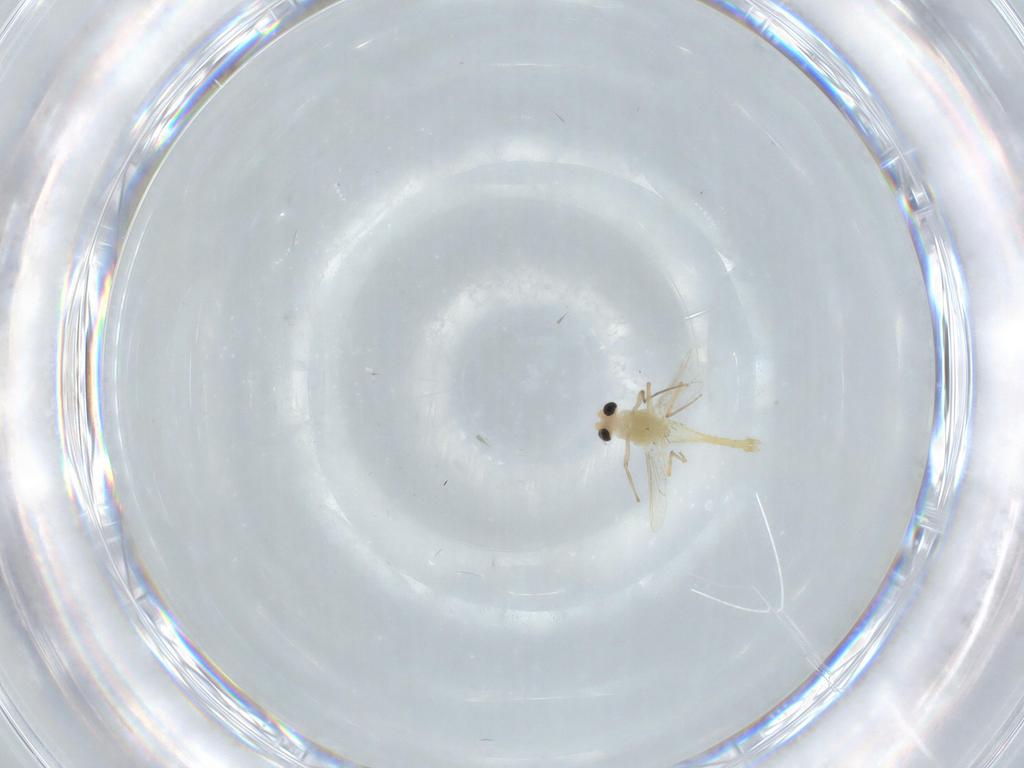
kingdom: Animalia
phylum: Arthropoda
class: Insecta
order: Diptera
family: Chironomidae
